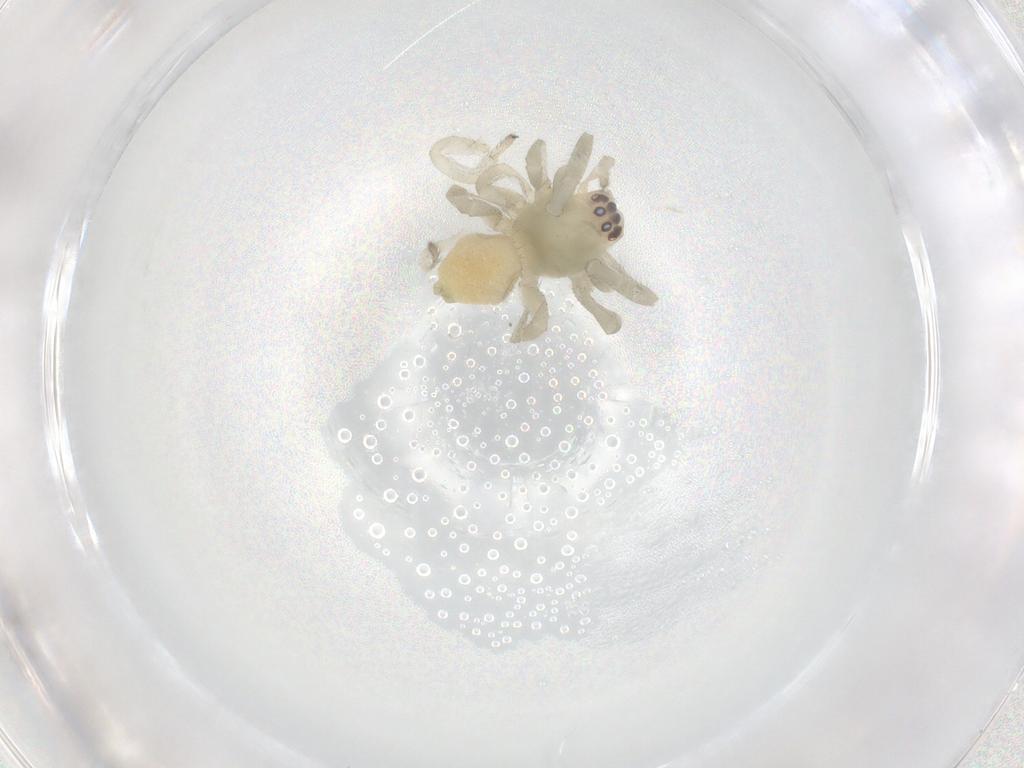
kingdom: Animalia
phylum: Arthropoda
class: Arachnida
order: Araneae
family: Cheiracanthiidae
